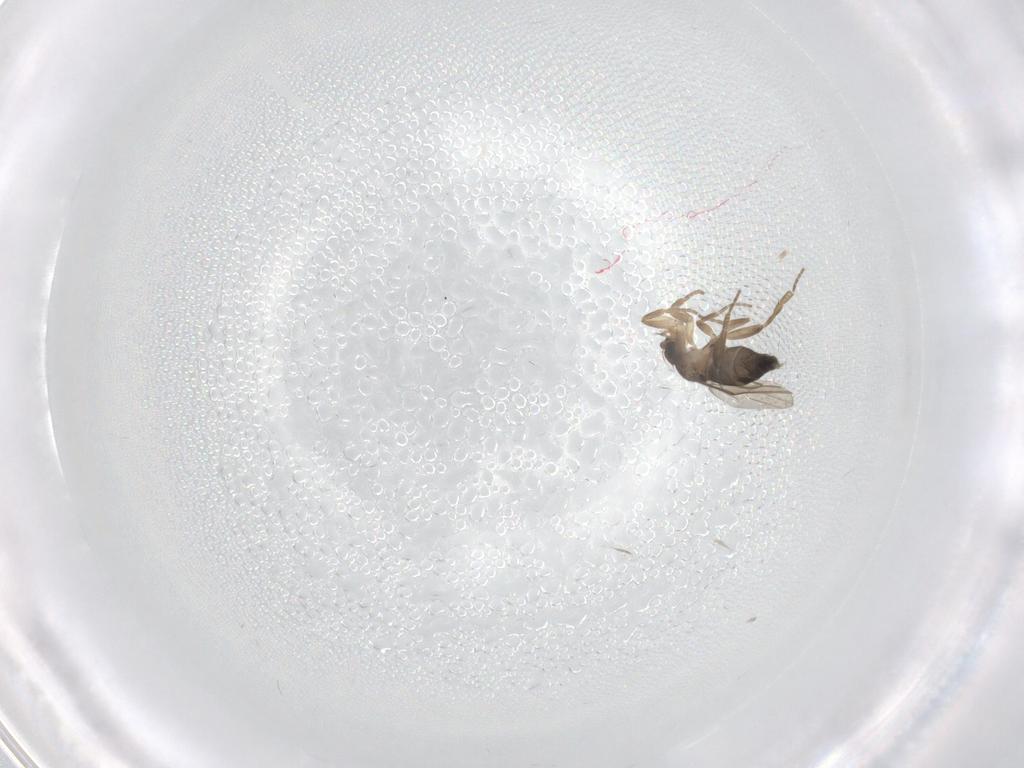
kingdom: Animalia
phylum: Arthropoda
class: Insecta
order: Diptera
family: Phoridae
